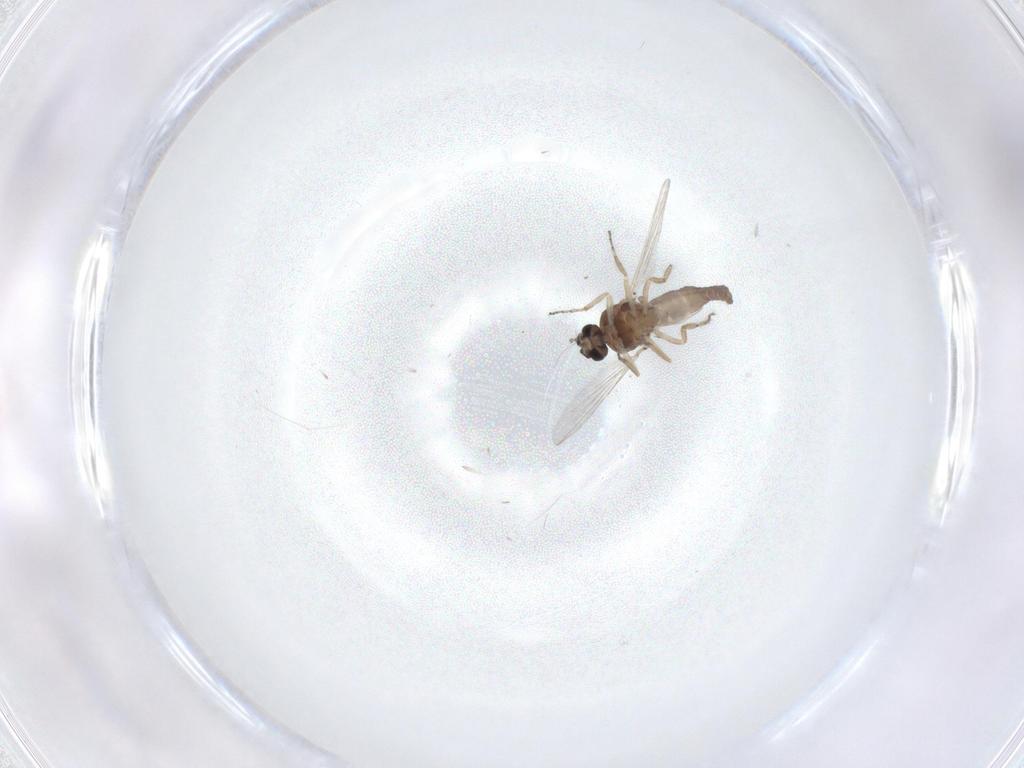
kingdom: Animalia
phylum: Arthropoda
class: Insecta
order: Diptera
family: Ceratopogonidae
